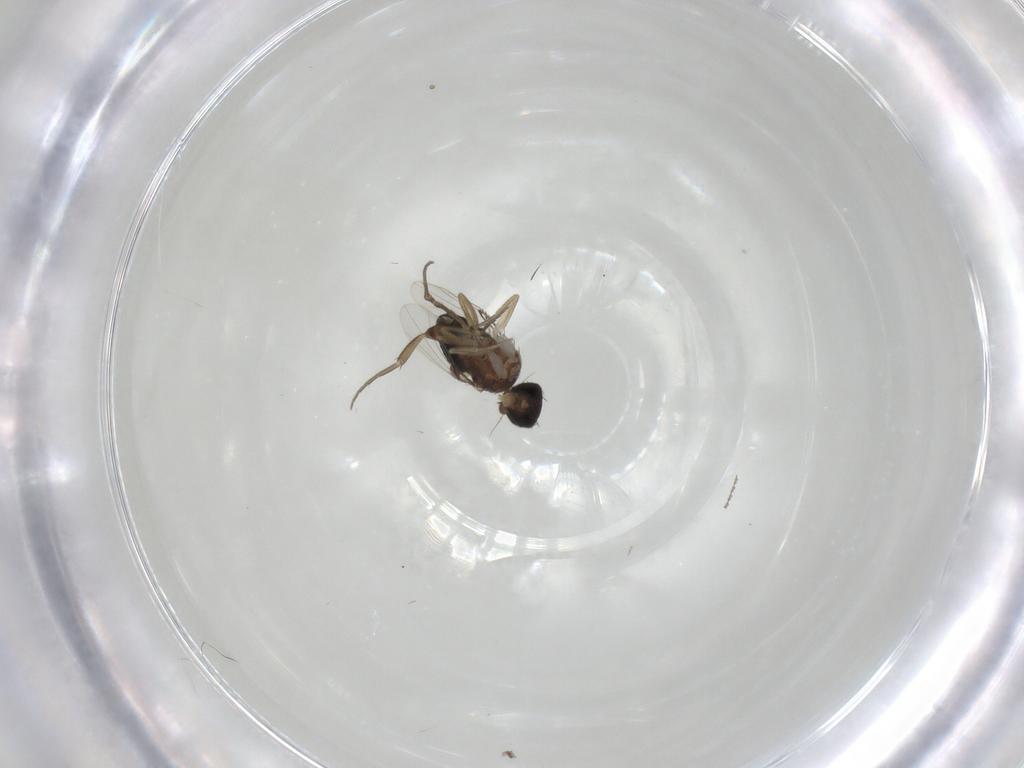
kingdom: Animalia
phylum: Arthropoda
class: Insecta
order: Diptera
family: Phoridae
